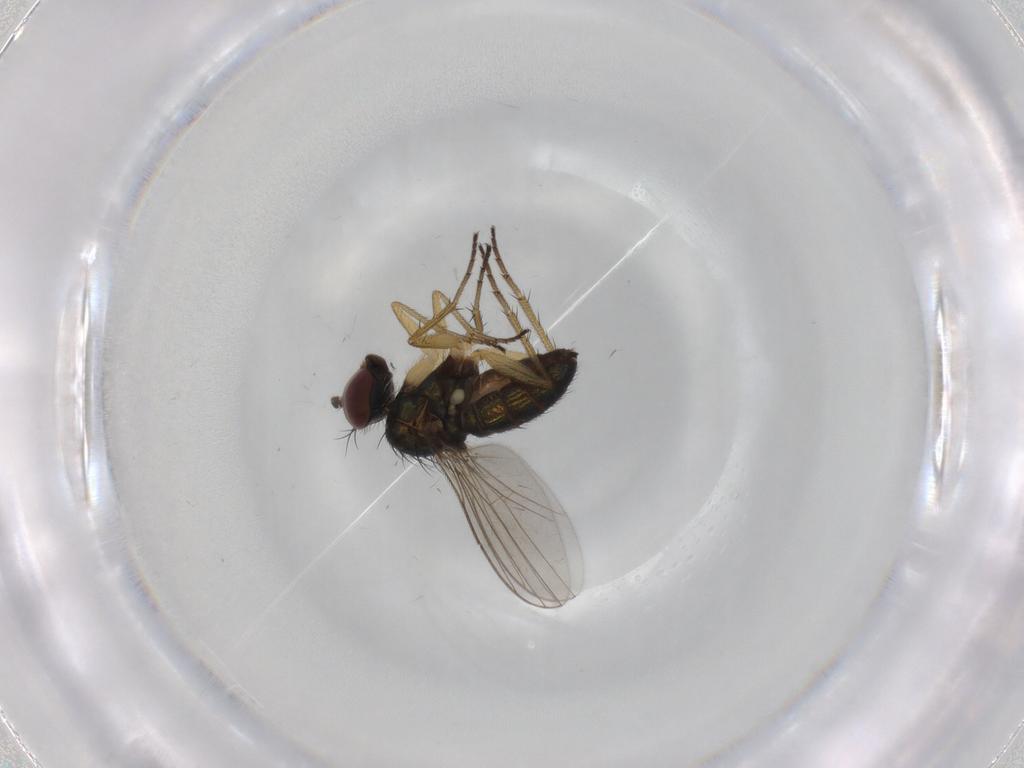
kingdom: Animalia
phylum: Arthropoda
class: Insecta
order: Diptera
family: Dolichopodidae
